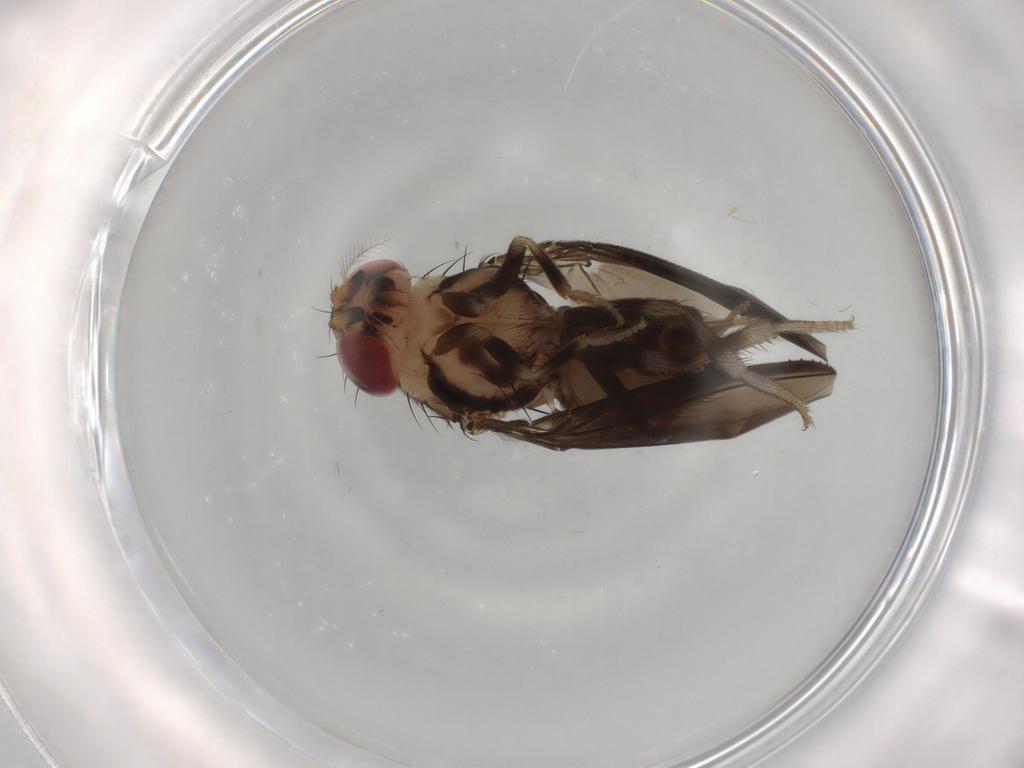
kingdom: Animalia
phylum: Arthropoda
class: Insecta
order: Diptera
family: Drosophilidae
